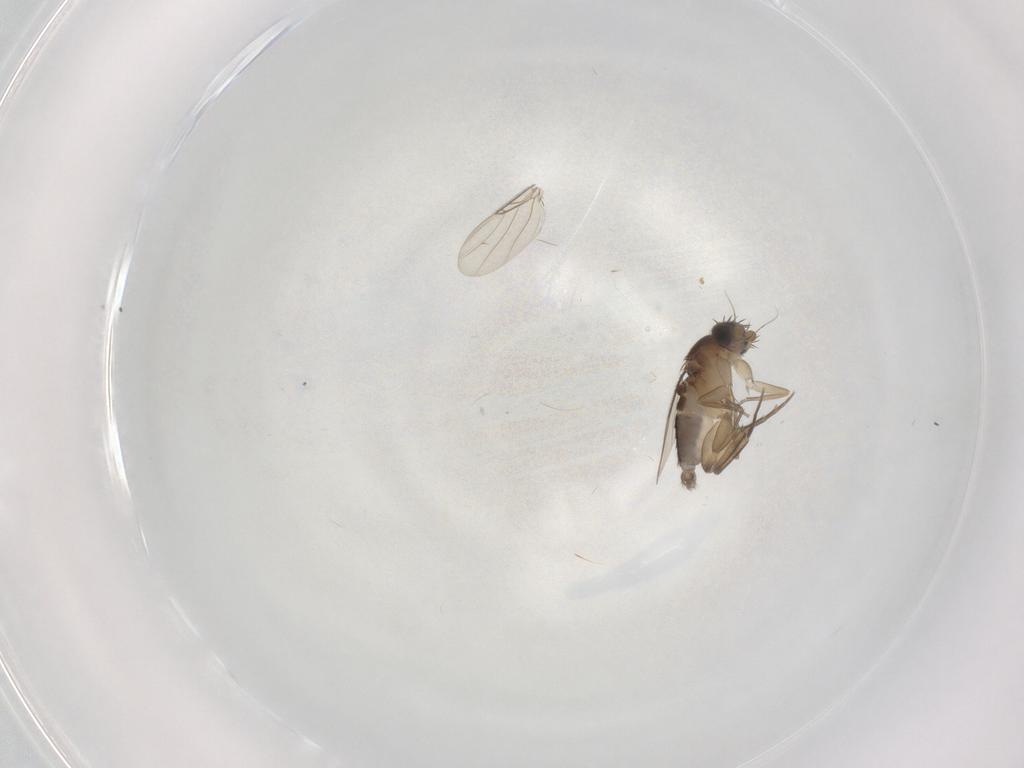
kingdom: Animalia
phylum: Arthropoda
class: Insecta
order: Diptera
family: Phoridae
